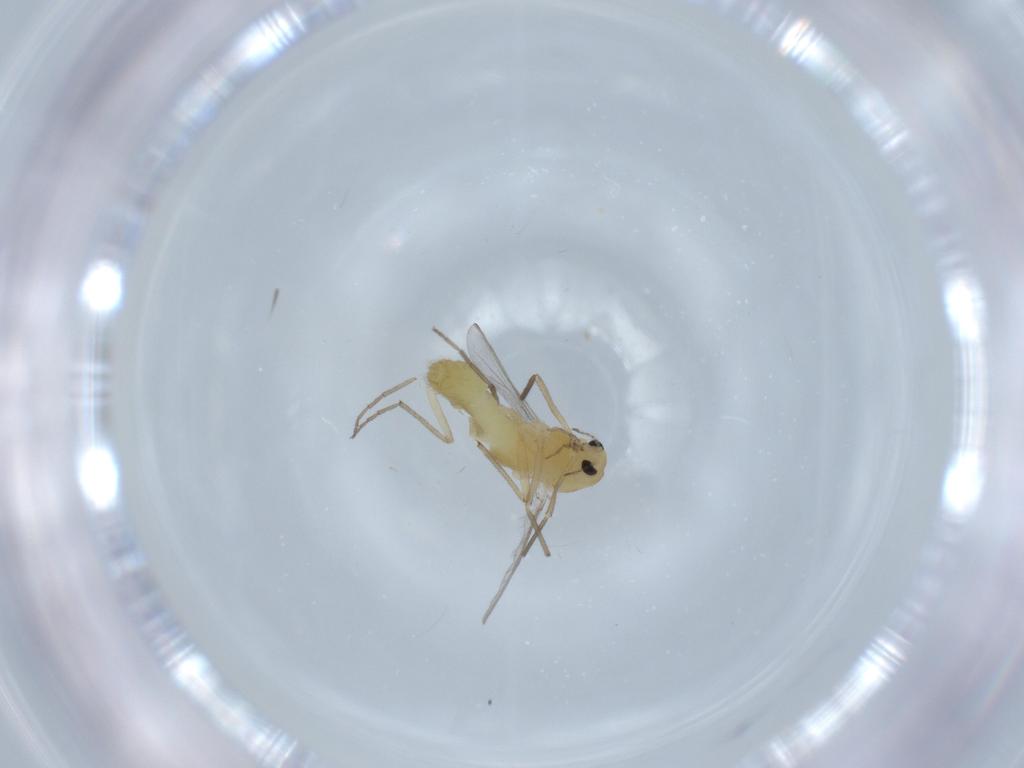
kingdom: Animalia
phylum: Arthropoda
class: Insecta
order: Diptera
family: Chironomidae
